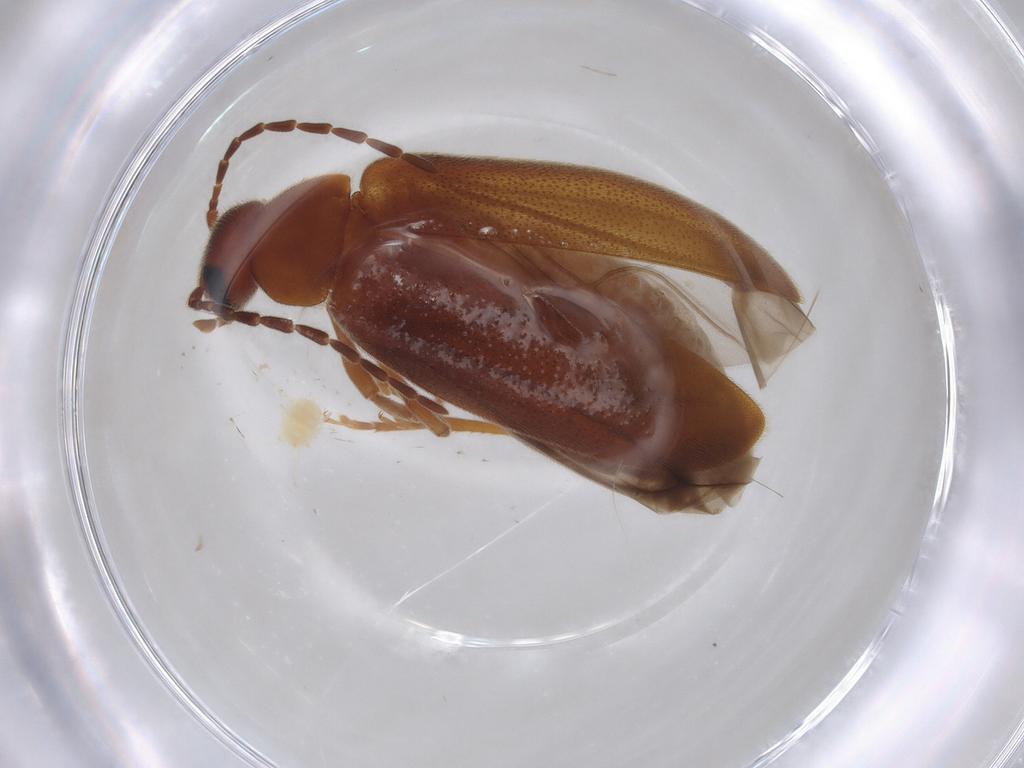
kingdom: Animalia
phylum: Arthropoda
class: Insecta
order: Coleoptera
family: Scraptiidae
